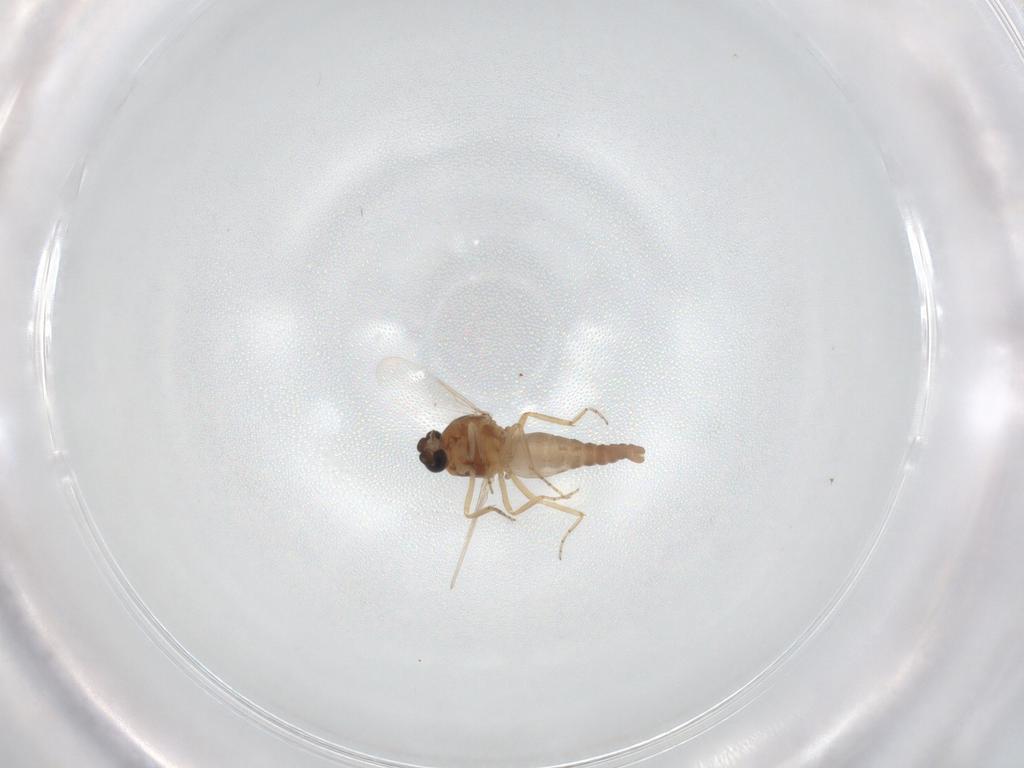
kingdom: Animalia
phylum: Arthropoda
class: Insecta
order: Diptera
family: Ceratopogonidae
